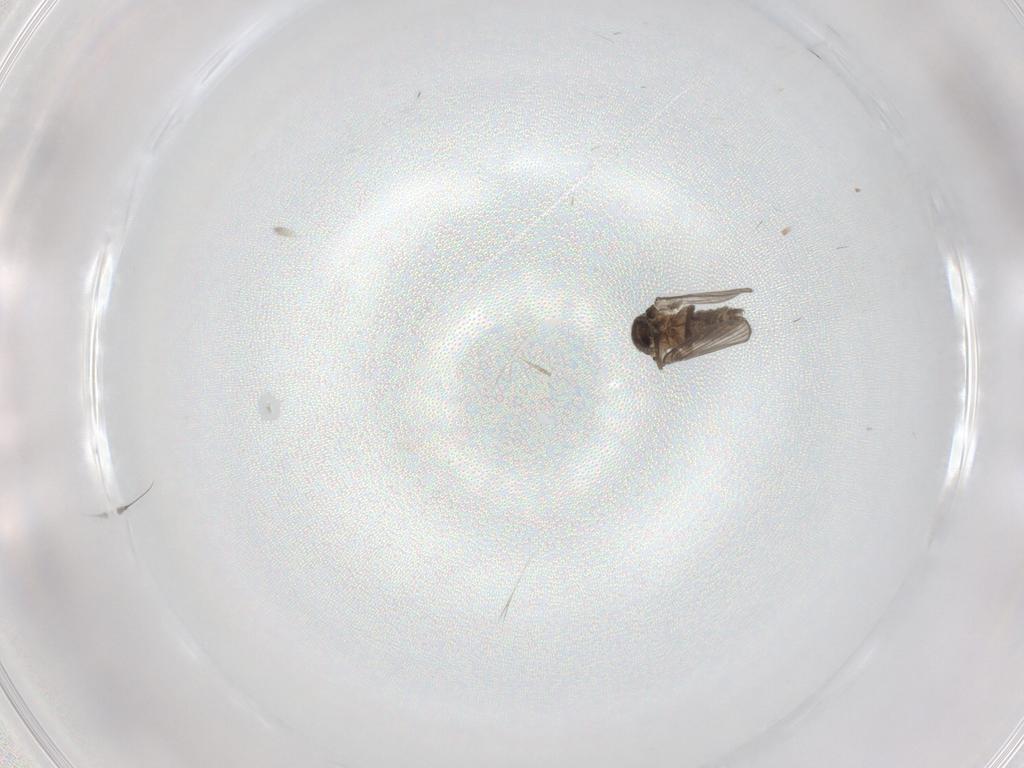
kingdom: Animalia
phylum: Arthropoda
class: Insecta
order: Diptera
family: Psychodidae
